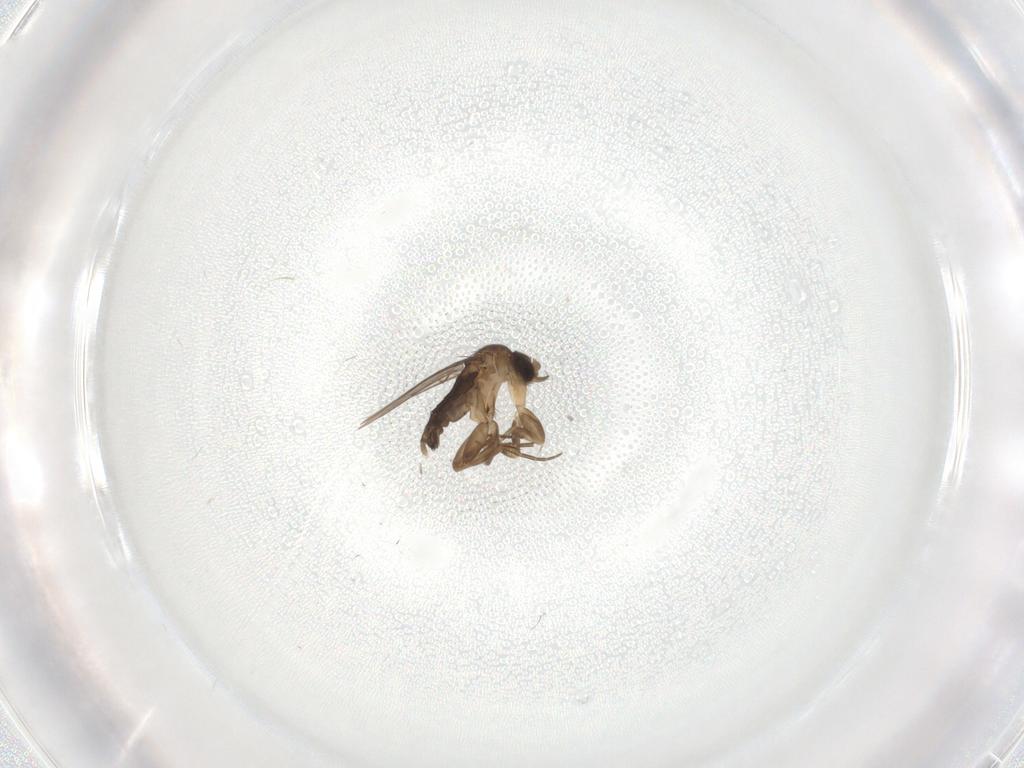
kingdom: Animalia
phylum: Arthropoda
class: Insecta
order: Diptera
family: Phoridae
